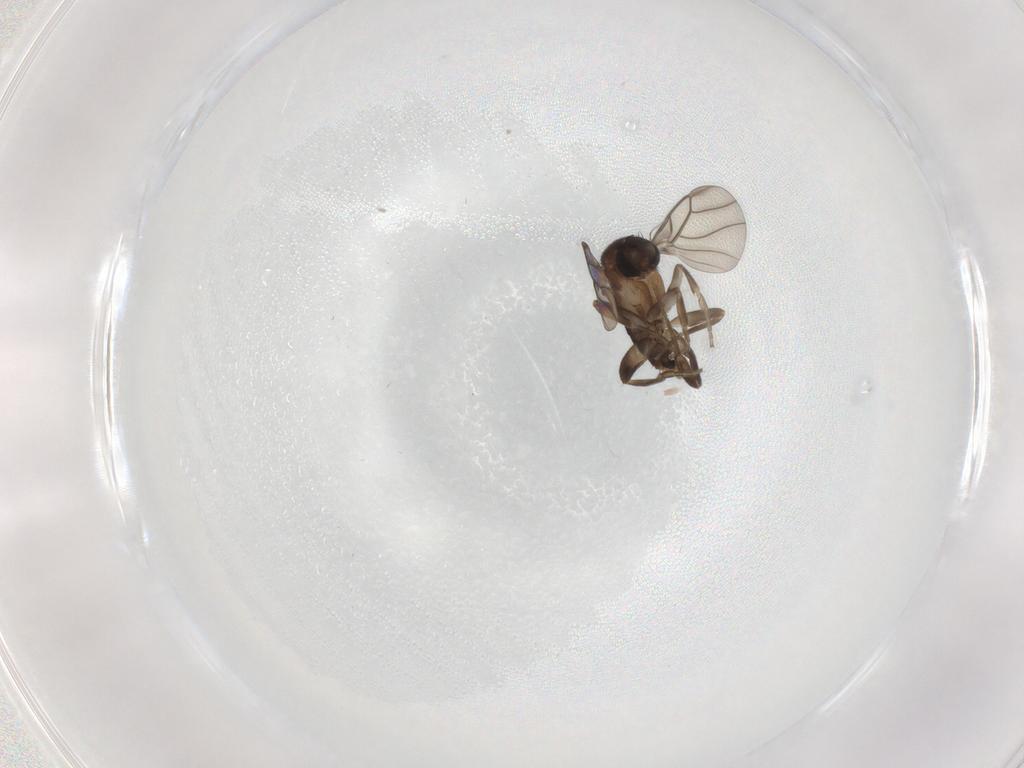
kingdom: Animalia
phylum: Arthropoda
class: Insecta
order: Diptera
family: Phoridae
